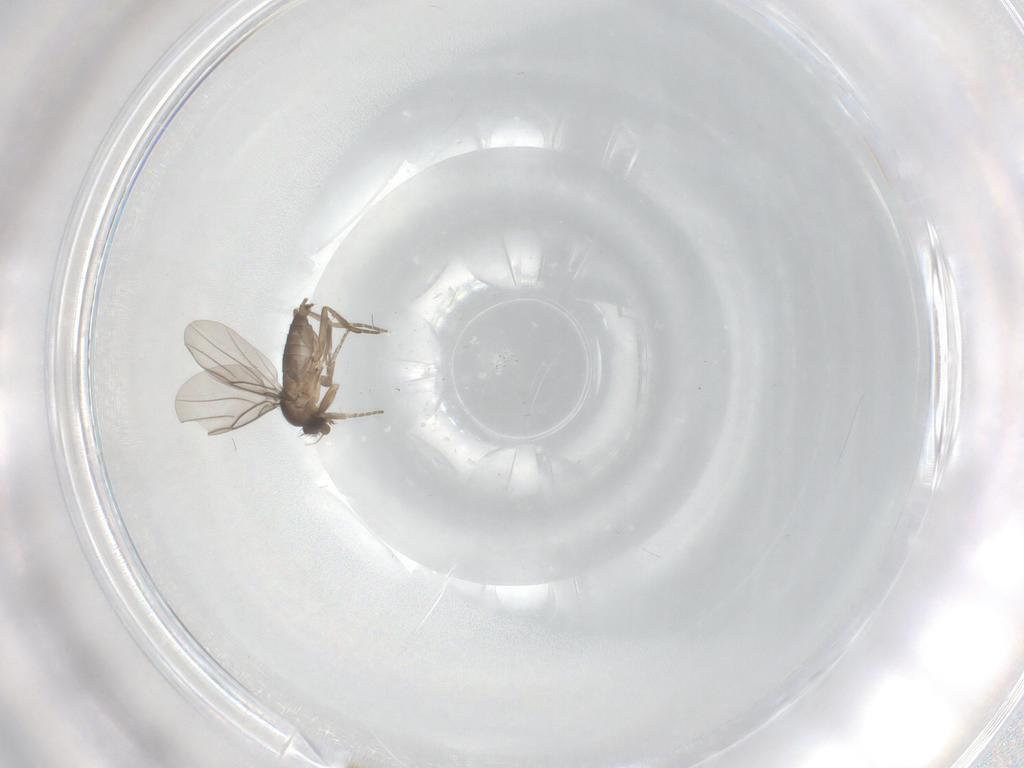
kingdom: Animalia
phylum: Arthropoda
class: Insecta
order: Diptera
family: Phoridae
